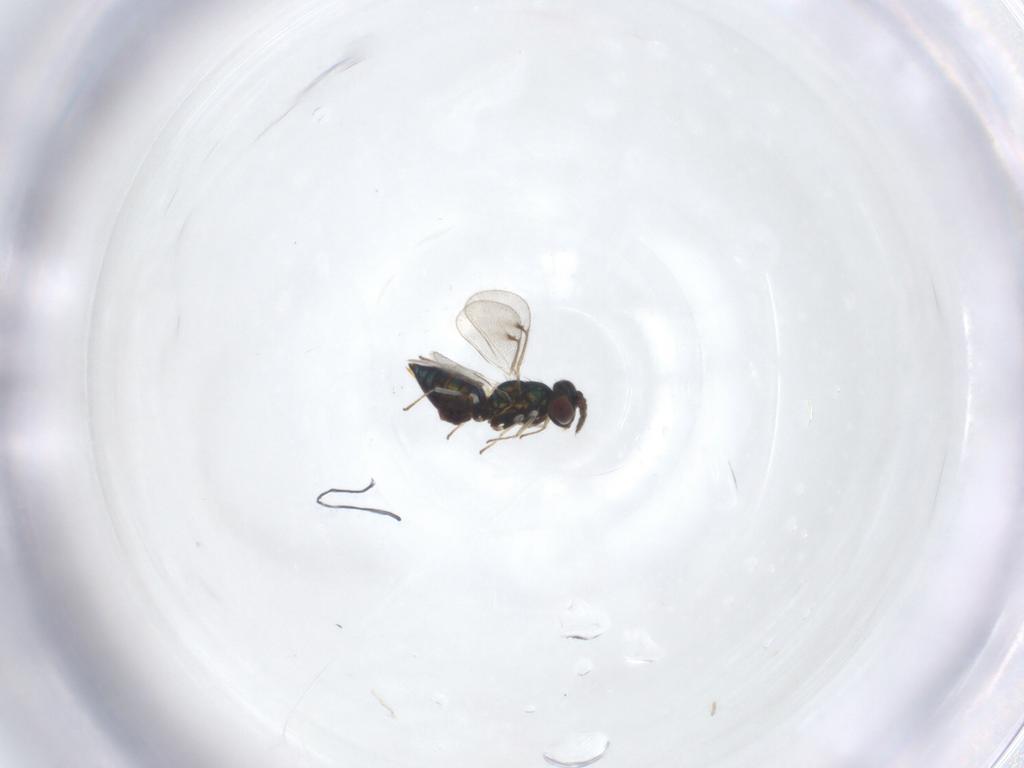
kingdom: Animalia
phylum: Arthropoda
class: Insecta
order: Hymenoptera
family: Eulophidae
